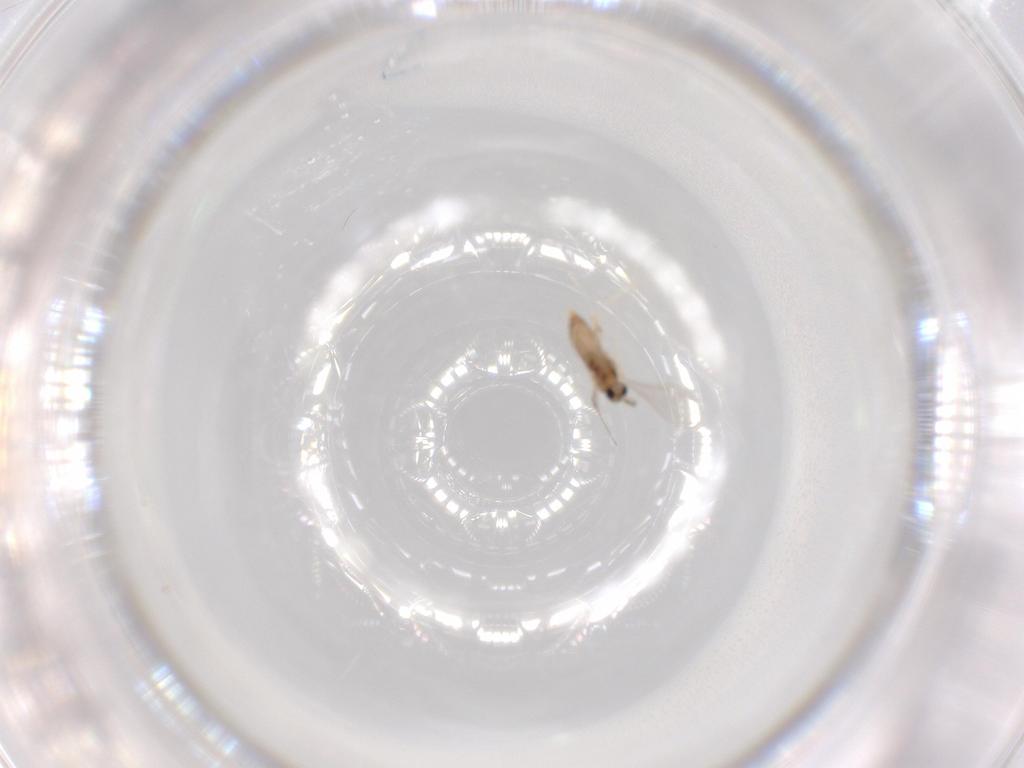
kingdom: Animalia
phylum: Arthropoda
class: Insecta
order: Diptera
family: Cecidomyiidae
